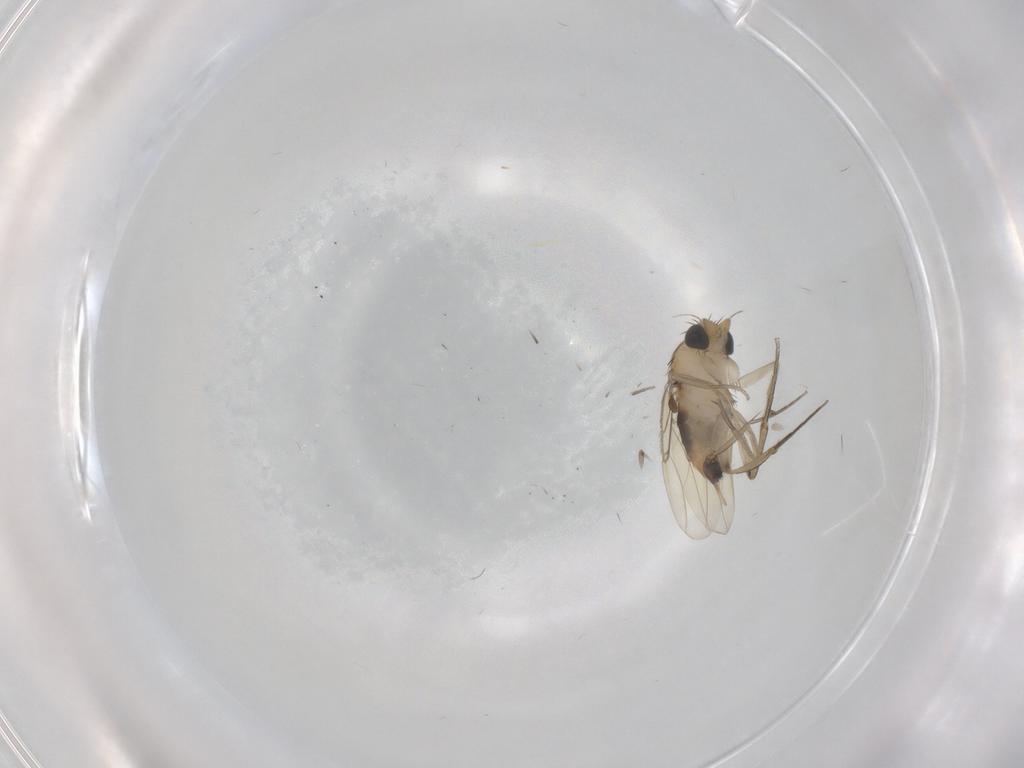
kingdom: Animalia
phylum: Arthropoda
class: Insecta
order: Diptera
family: Phoridae
